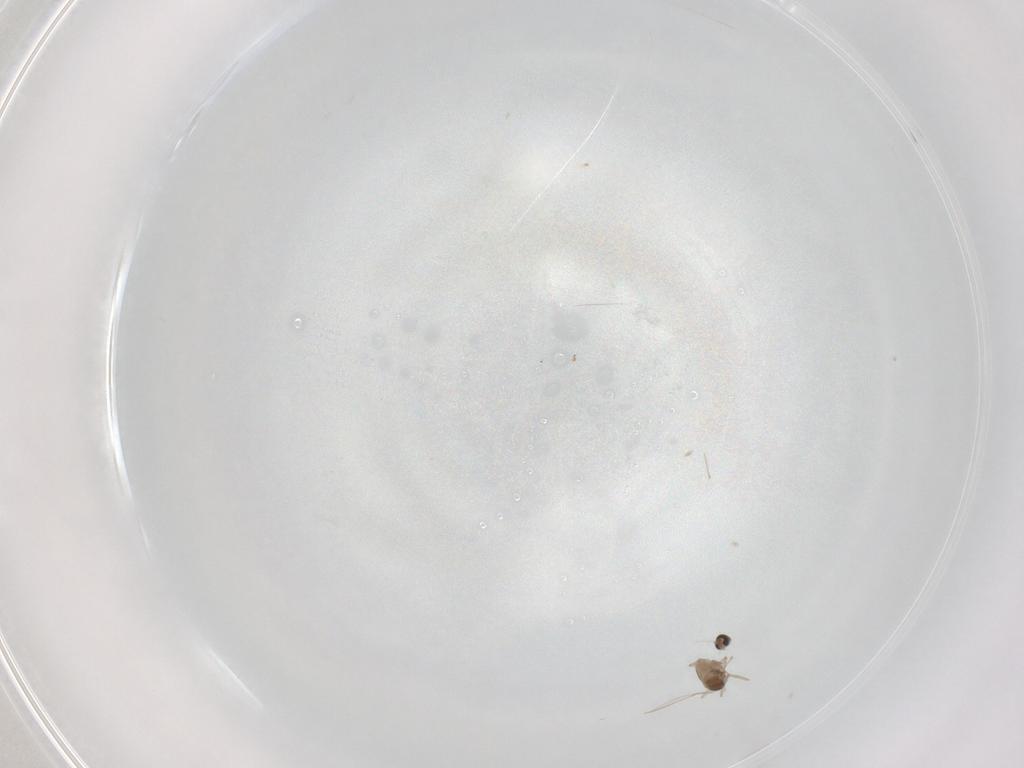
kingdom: Animalia
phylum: Arthropoda
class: Insecta
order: Diptera
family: Cecidomyiidae
